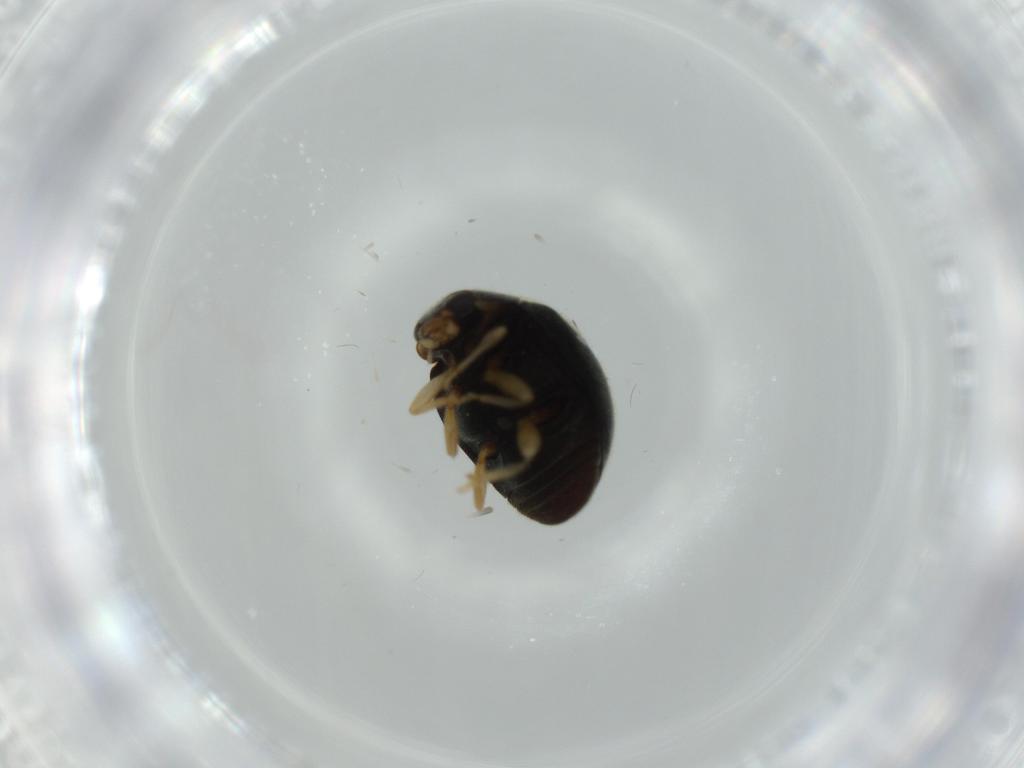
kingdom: Animalia
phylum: Arthropoda
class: Insecta
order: Coleoptera
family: Coccinellidae
